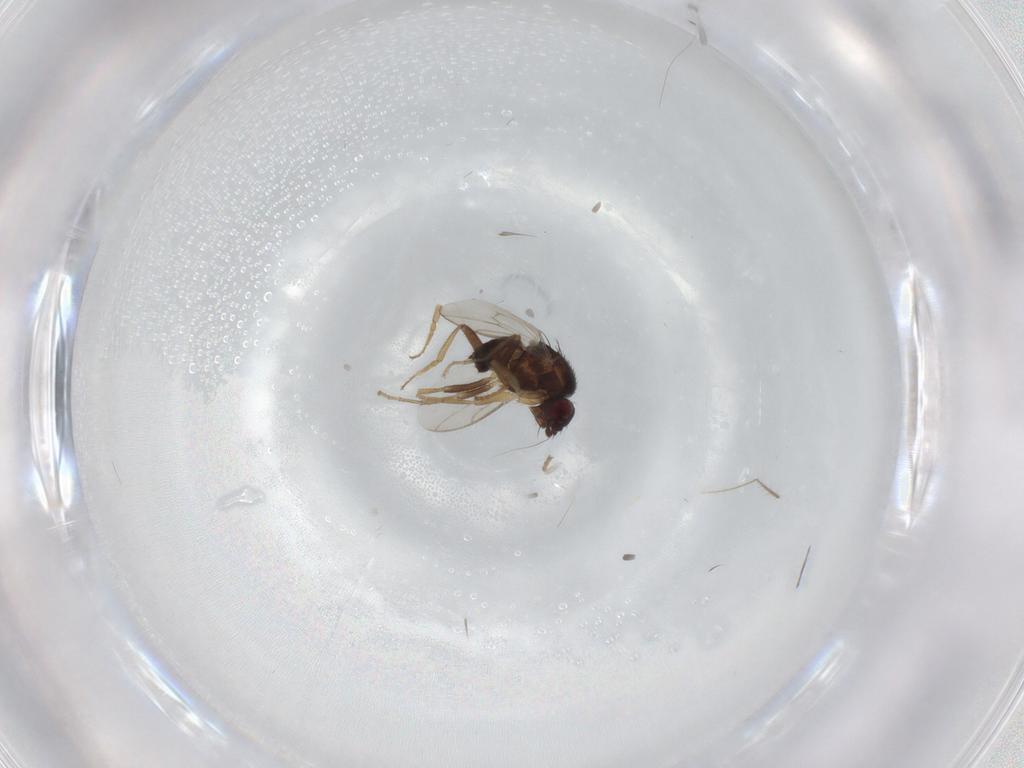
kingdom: Animalia
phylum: Arthropoda
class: Insecta
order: Diptera
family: Sphaeroceridae
